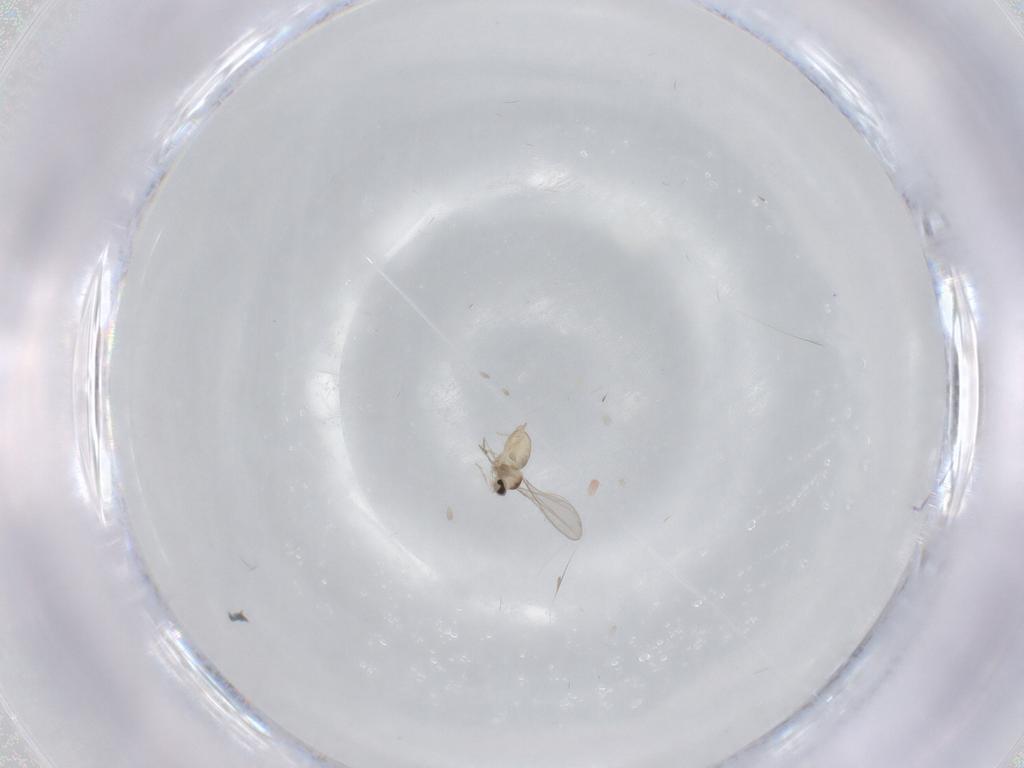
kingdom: Animalia
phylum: Arthropoda
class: Insecta
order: Diptera
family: Cecidomyiidae
